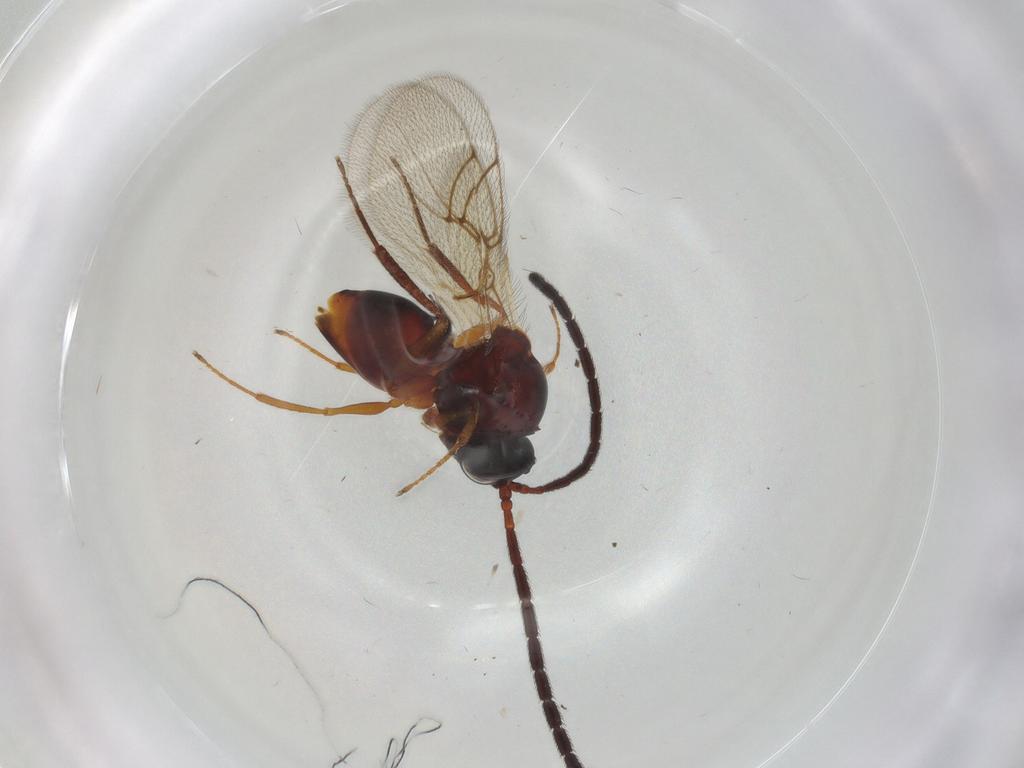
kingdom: Animalia
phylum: Arthropoda
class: Insecta
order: Hymenoptera
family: Figitidae
